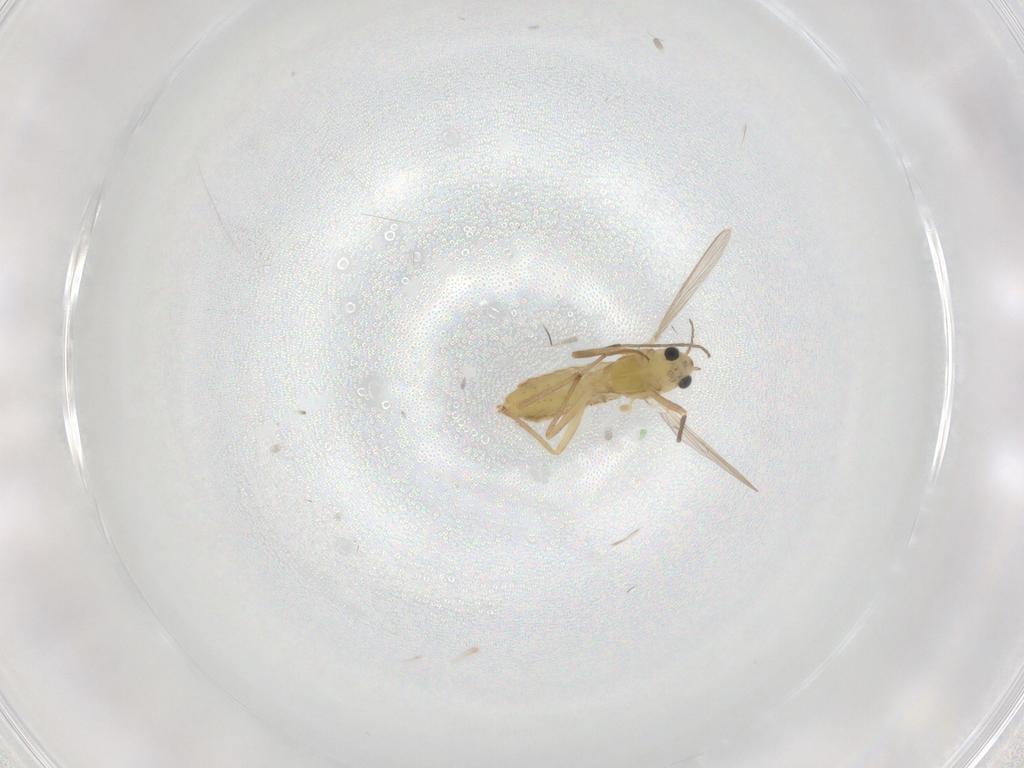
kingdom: Animalia
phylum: Arthropoda
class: Insecta
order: Diptera
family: Chironomidae
